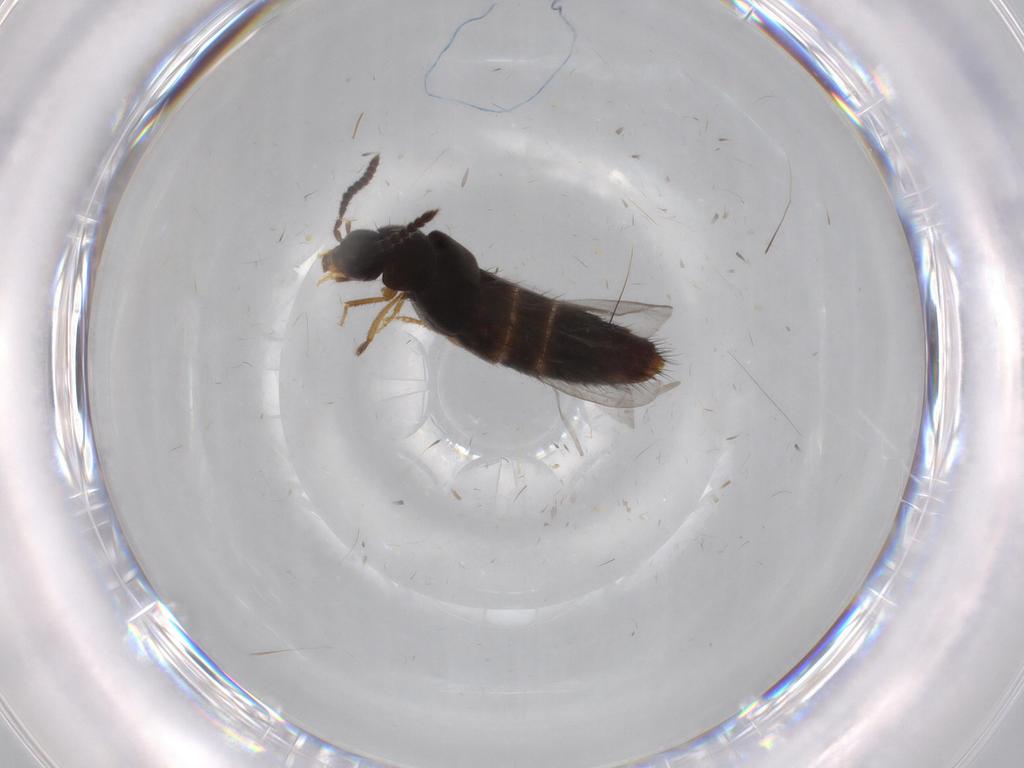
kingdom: Animalia
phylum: Arthropoda
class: Insecta
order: Coleoptera
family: Staphylinidae
